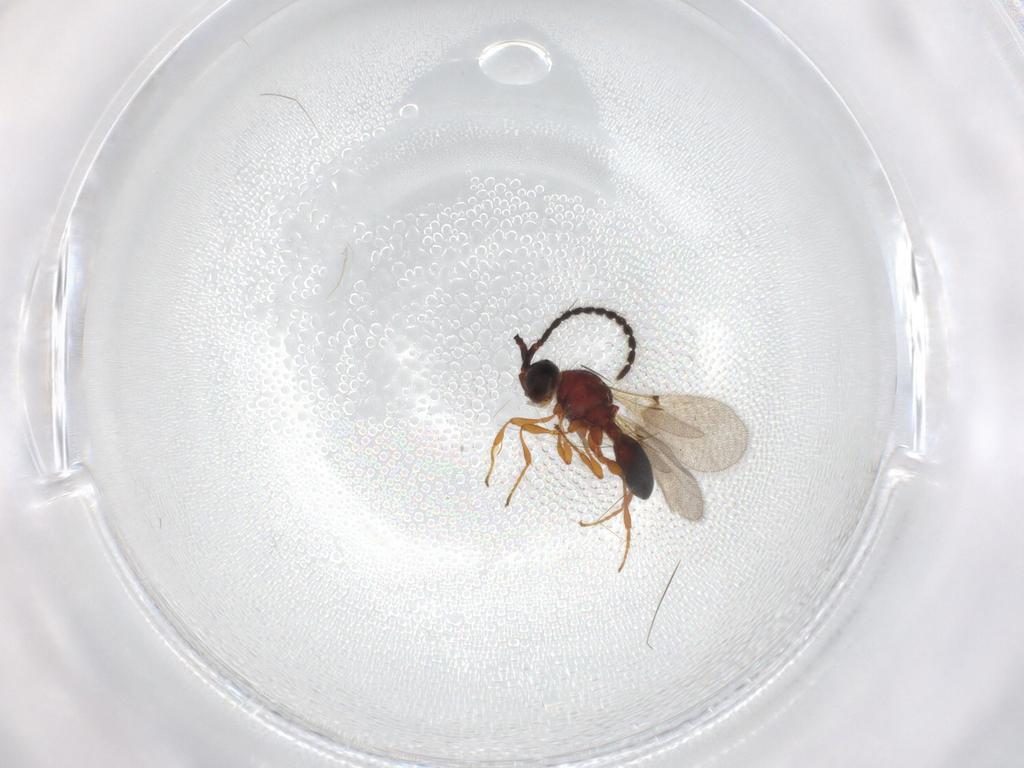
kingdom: Animalia
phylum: Arthropoda
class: Insecta
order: Hymenoptera
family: Diapriidae
